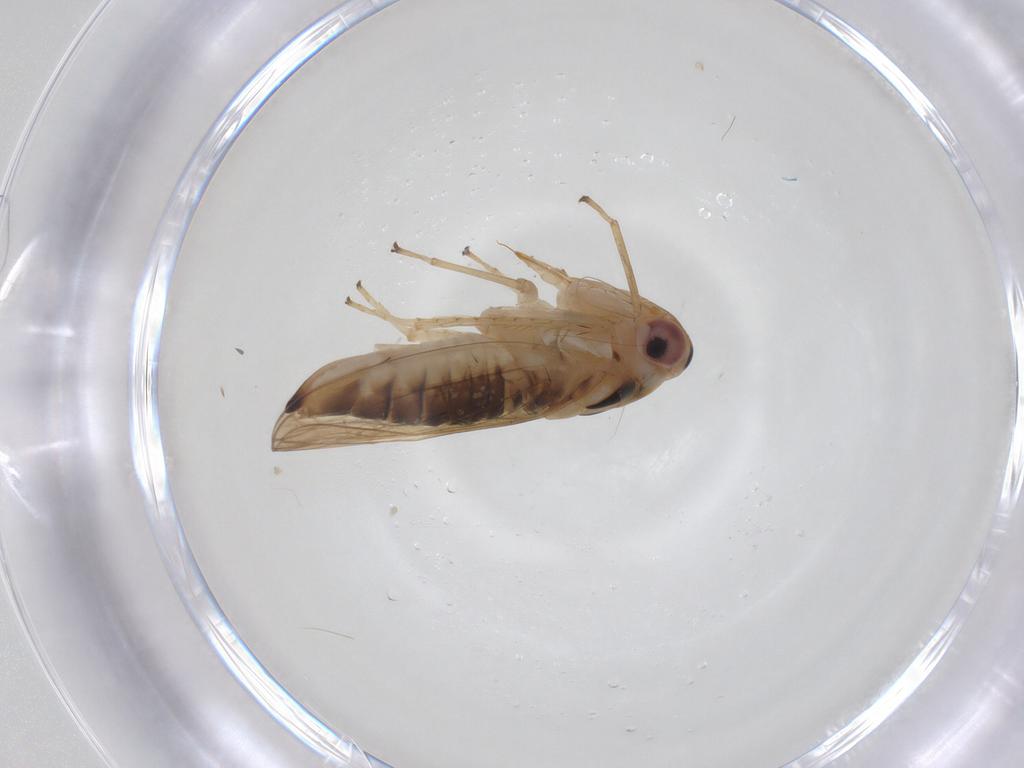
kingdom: Animalia
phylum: Arthropoda
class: Insecta
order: Hemiptera
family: Cicadellidae
